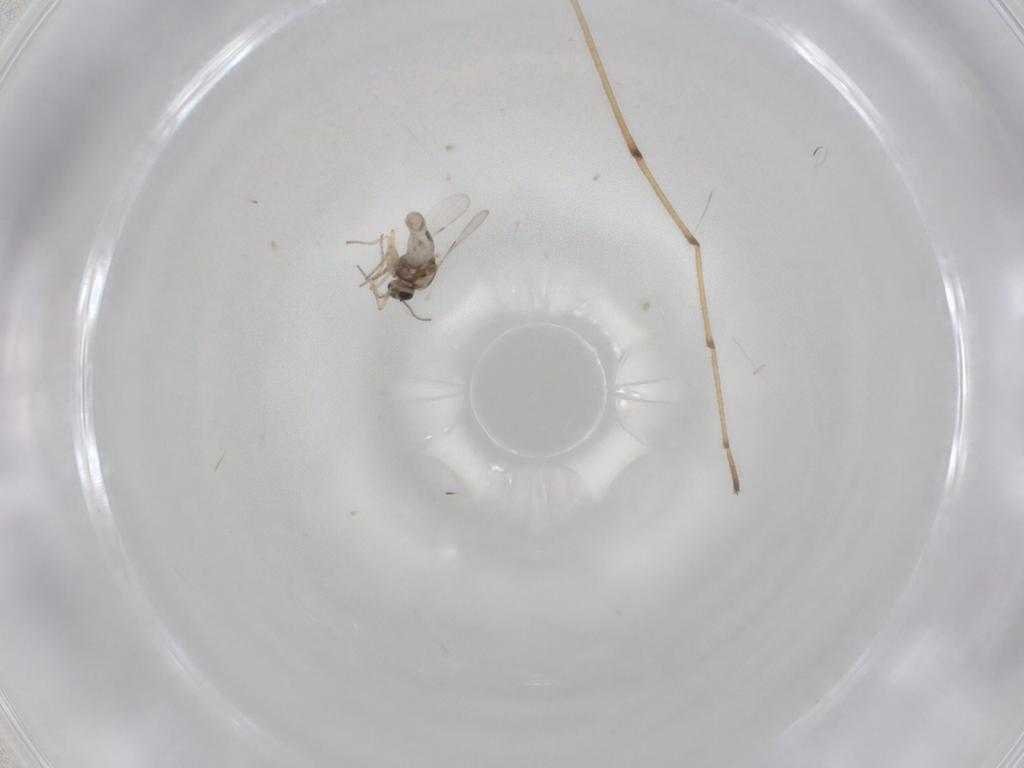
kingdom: Animalia
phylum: Arthropoda
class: Insecta
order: Diptera
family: Ceratopogonidae
